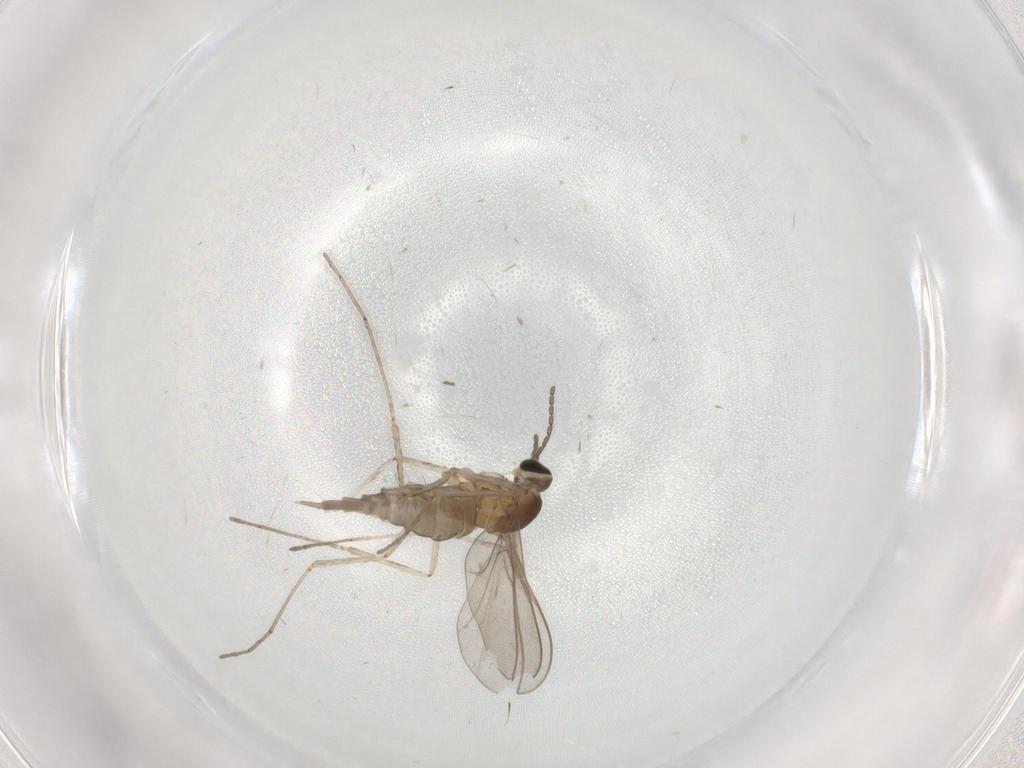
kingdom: Animalia
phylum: Arthropoda
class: Insecta
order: Diptera
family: Cecidomyiidae
